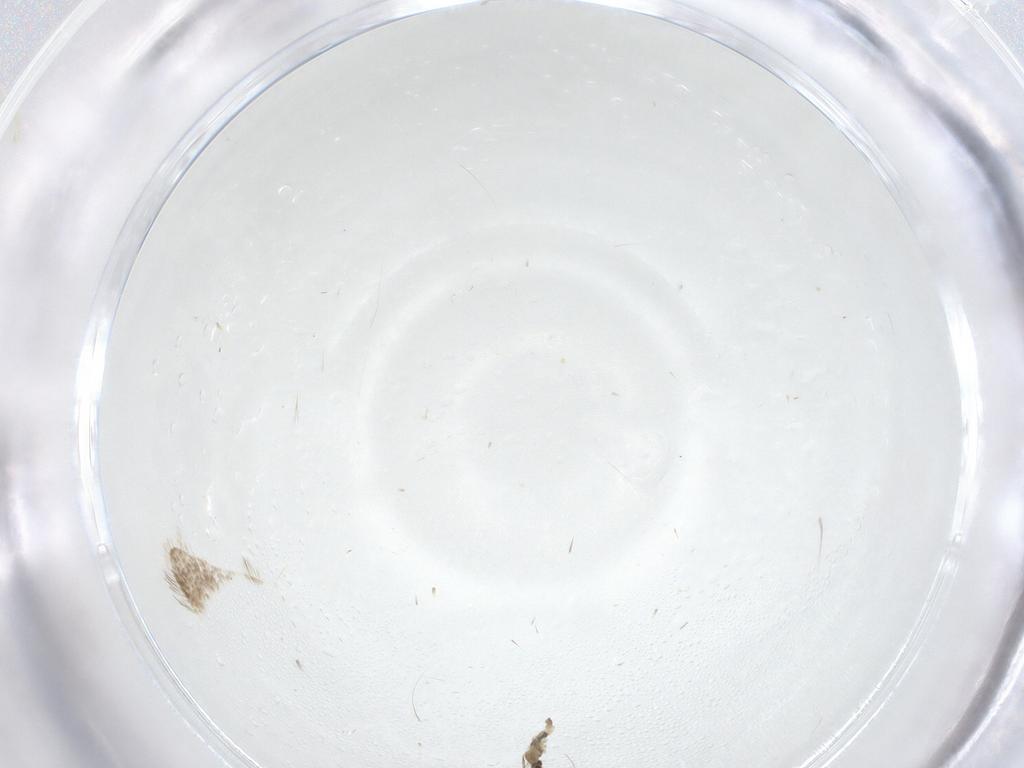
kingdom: Animalia
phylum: Arthropoda
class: Insecta
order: Diptera
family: Cecidomyiidae
